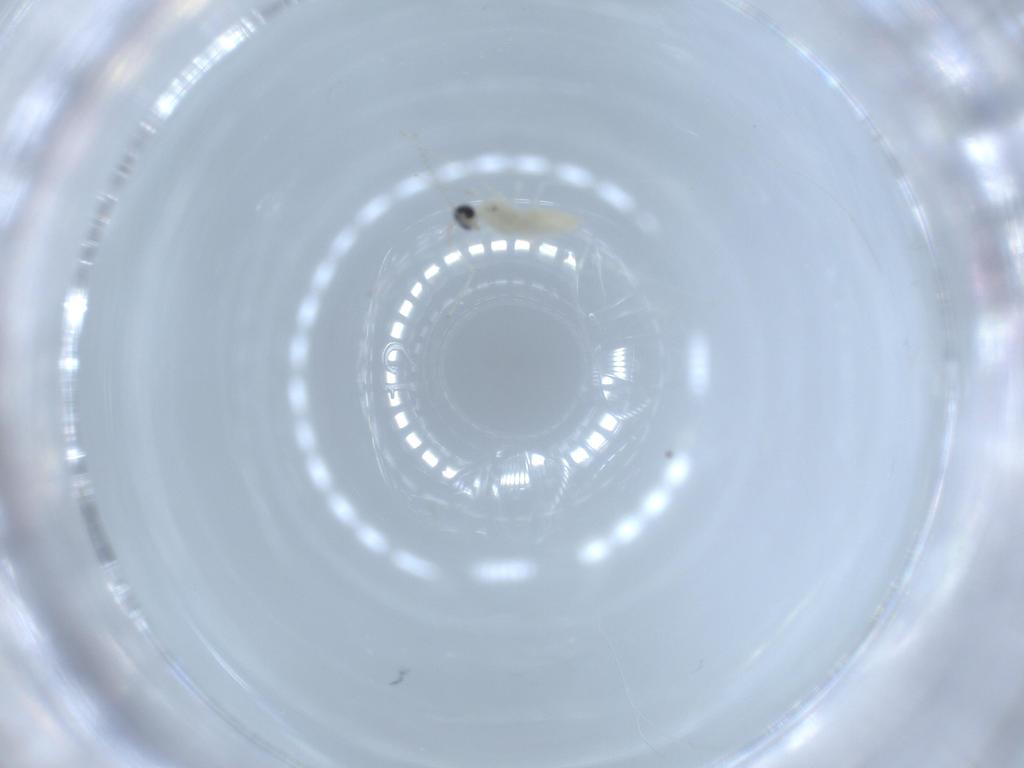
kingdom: Animalia
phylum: Arthropoda
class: Insecta
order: Diptera
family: Cecidomyiidae
